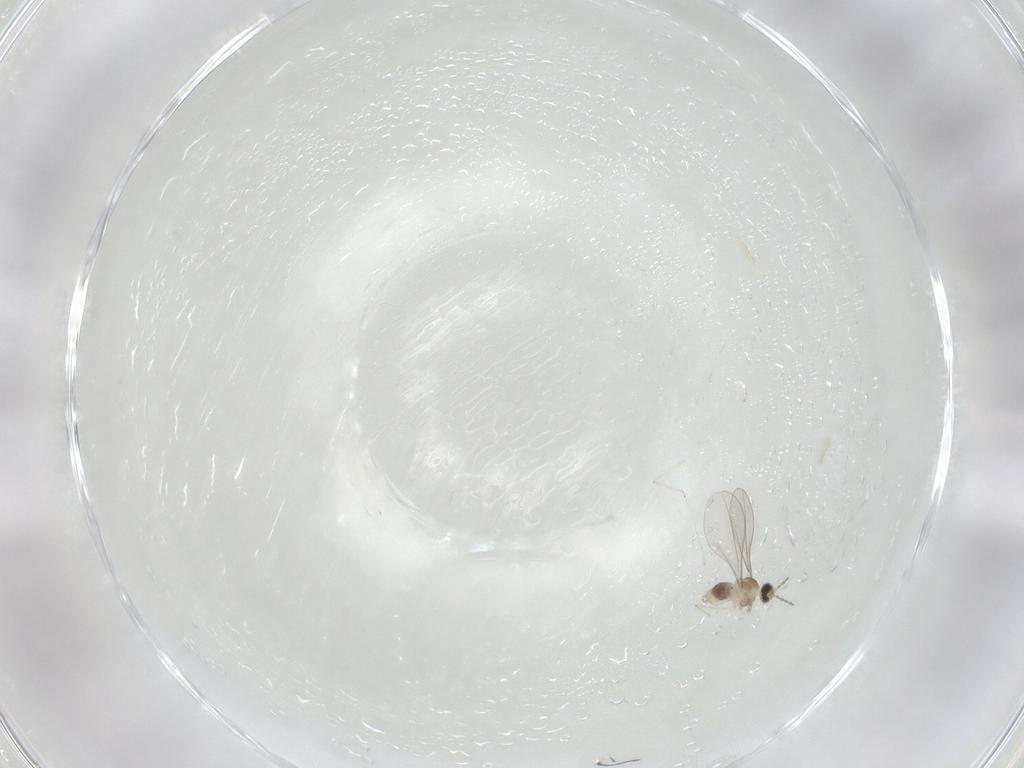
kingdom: Animalia
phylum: Arthropoda
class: Insecta
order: Diptera
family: Cecidomyiidae
